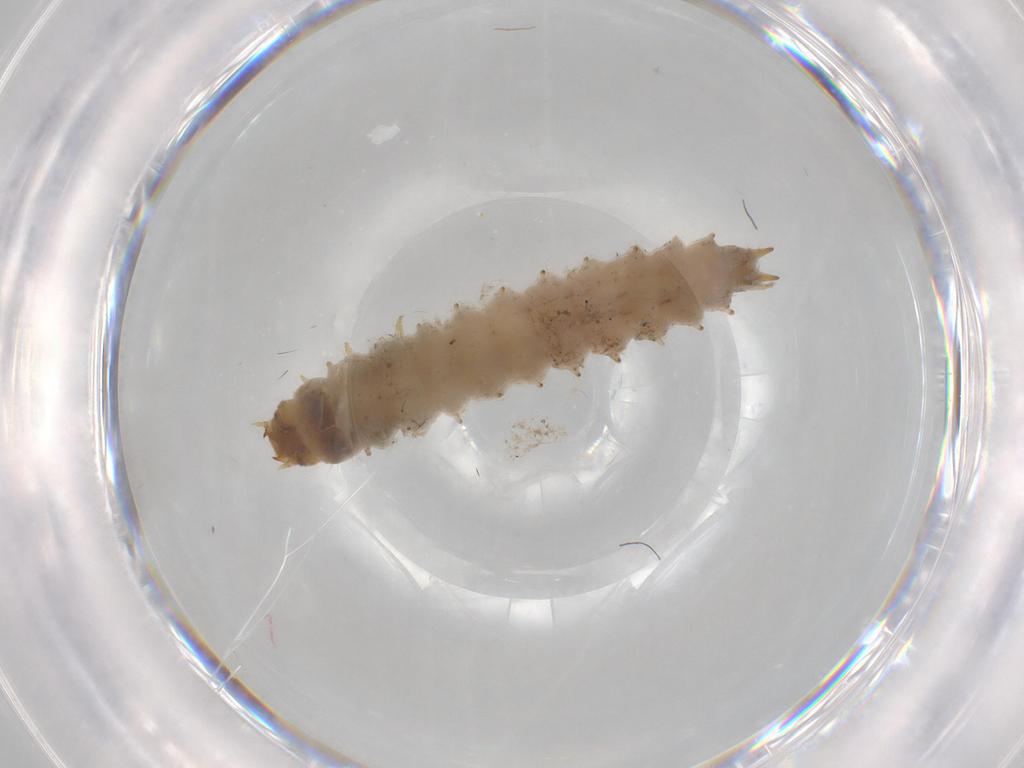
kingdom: Animalia
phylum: Arthropoda
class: Insecta
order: Coleoptera
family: Nitidulidae
